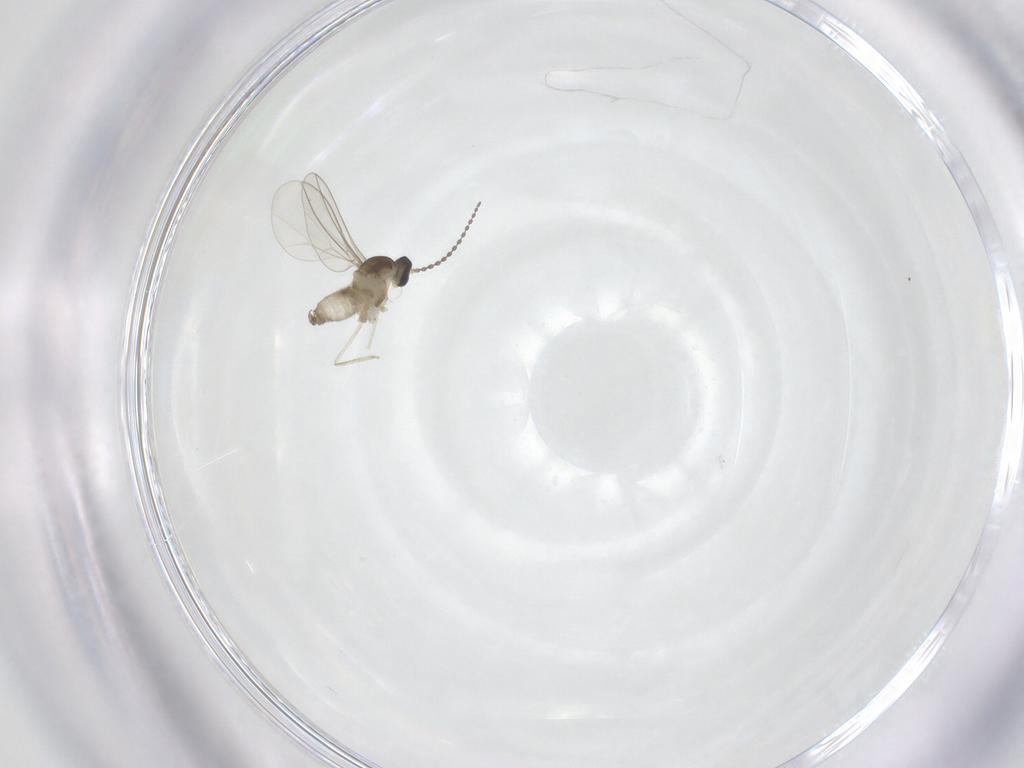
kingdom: Animalia
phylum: Arthropoda
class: Insecta
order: Diptera
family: Cecidomyiidae
